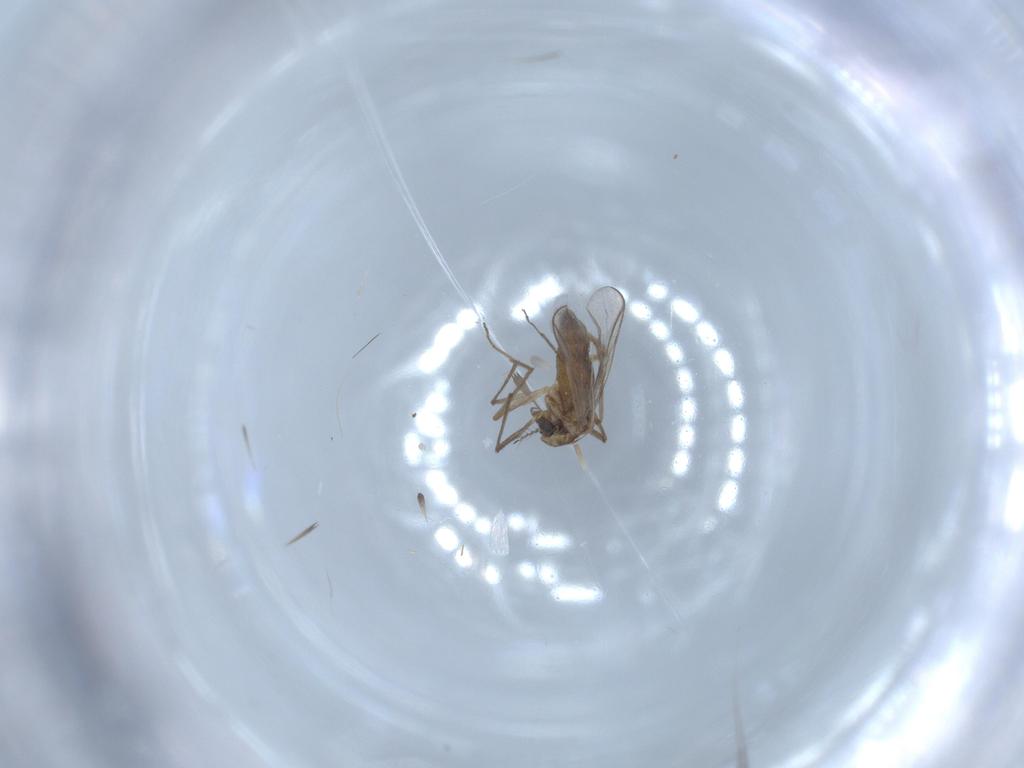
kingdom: Animalia
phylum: Arthropoda
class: Insecta
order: Diptera
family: Chironomidae
